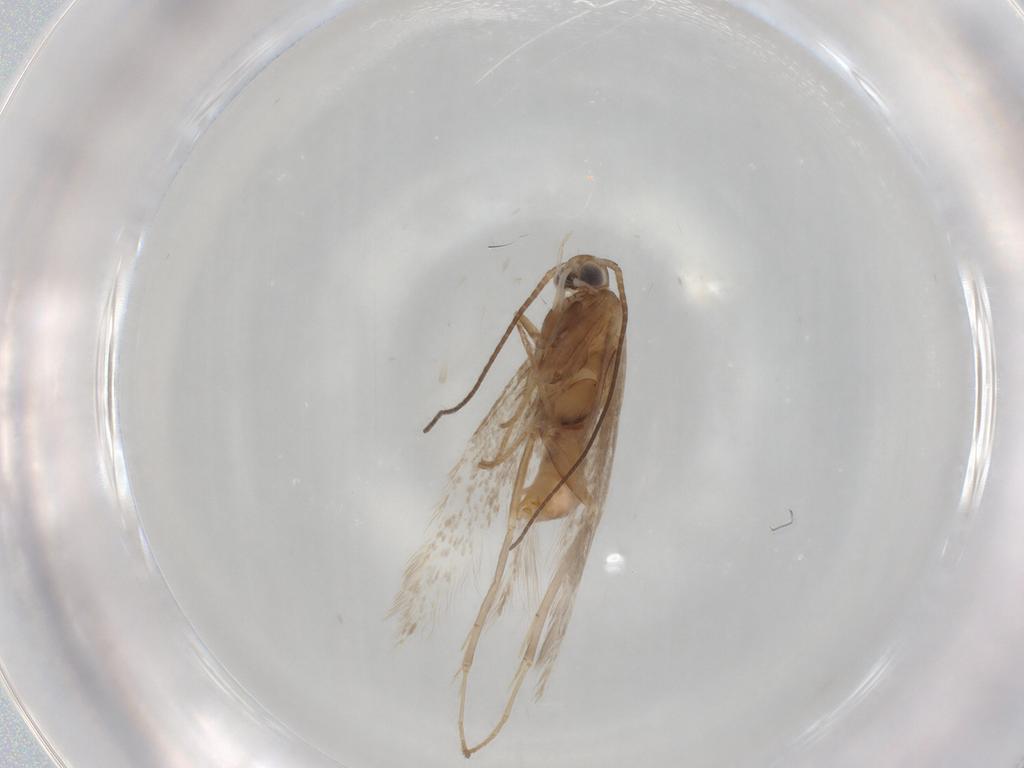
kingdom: Animalia
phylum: Arthropoda
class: Insecta
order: Lepidoptera
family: Coleophoridae
